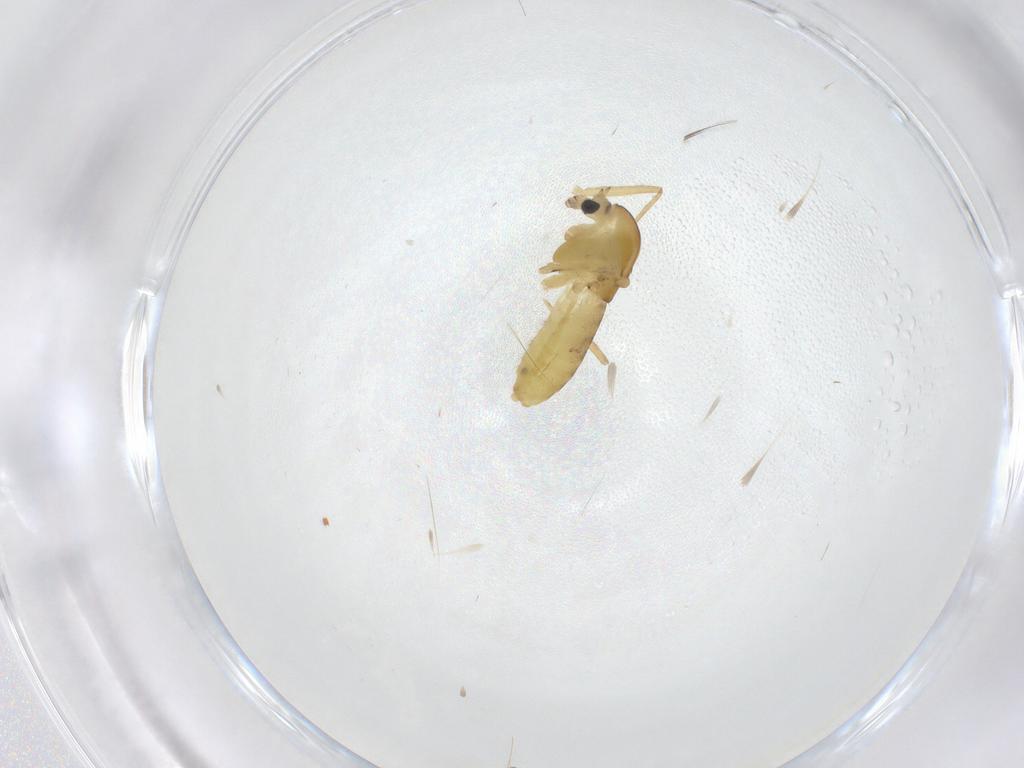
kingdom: Animalia
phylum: Arthropoda
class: Insecta
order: Diptera
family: Chironomidae
